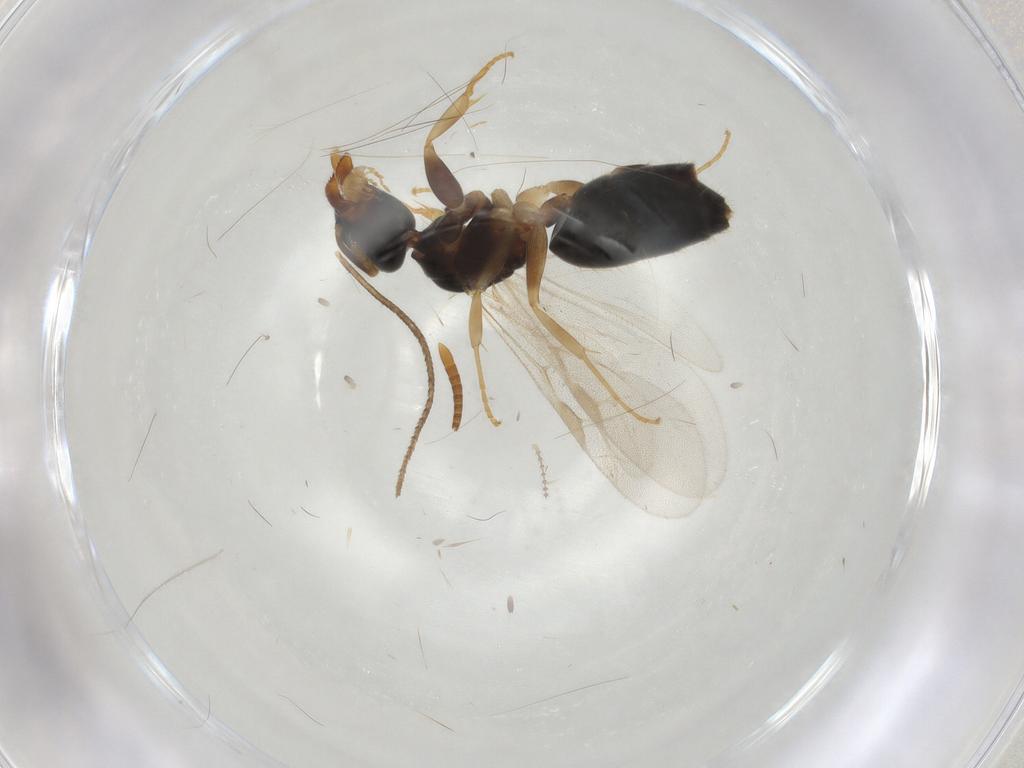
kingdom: Animalia
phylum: Arthropoda
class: Insecta
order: Hymenoptera
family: Formicidae
